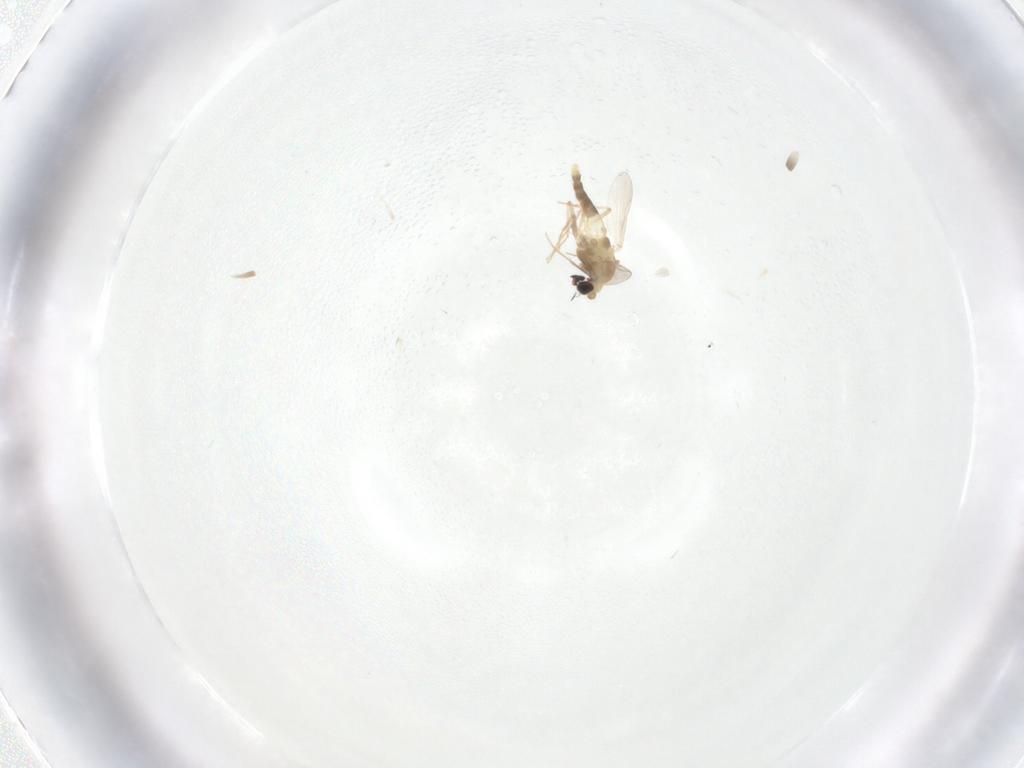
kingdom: Animalia
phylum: Arthropoda
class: Insecta
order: Diptera
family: Chironomidae
